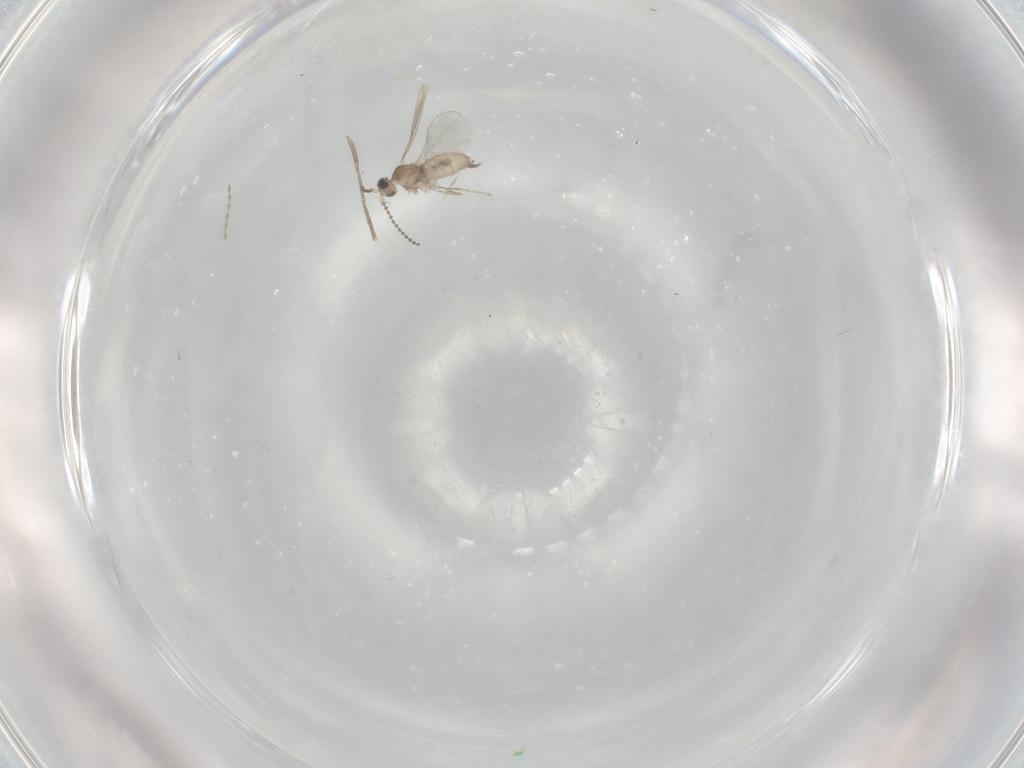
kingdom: Animalia
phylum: Arthropoda
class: Insecta
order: Diptera
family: Cecidomyiidae
